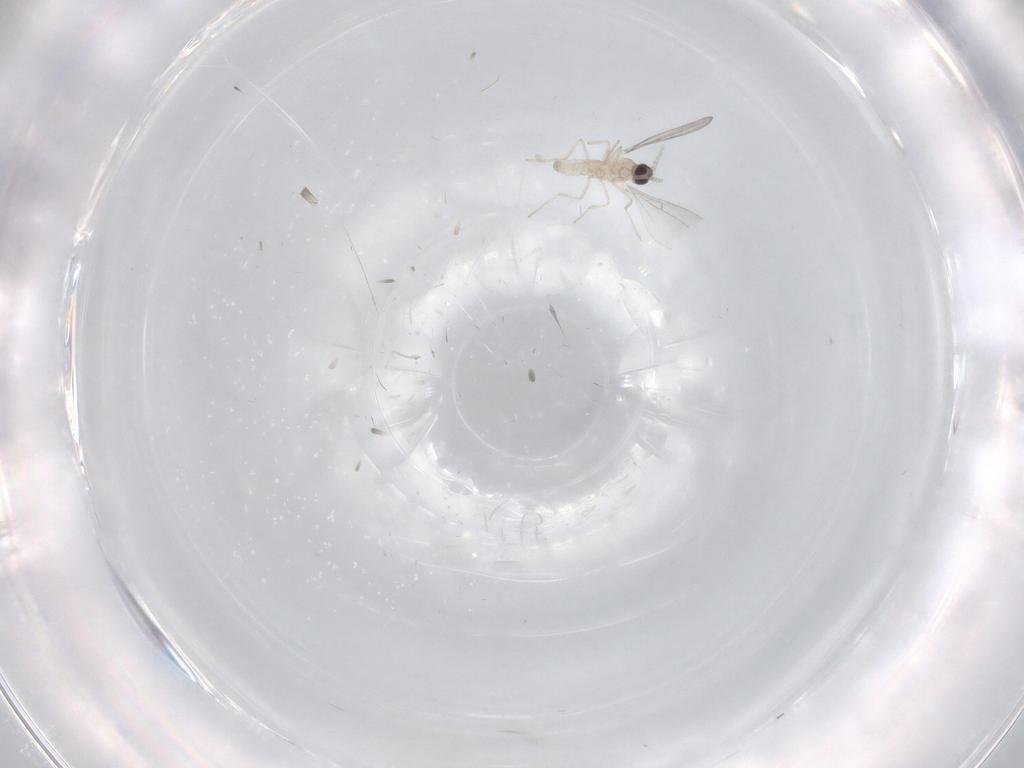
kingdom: Animalia
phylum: Arthropoda
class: Insecta
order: Diptera
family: Cecidomyiidae
